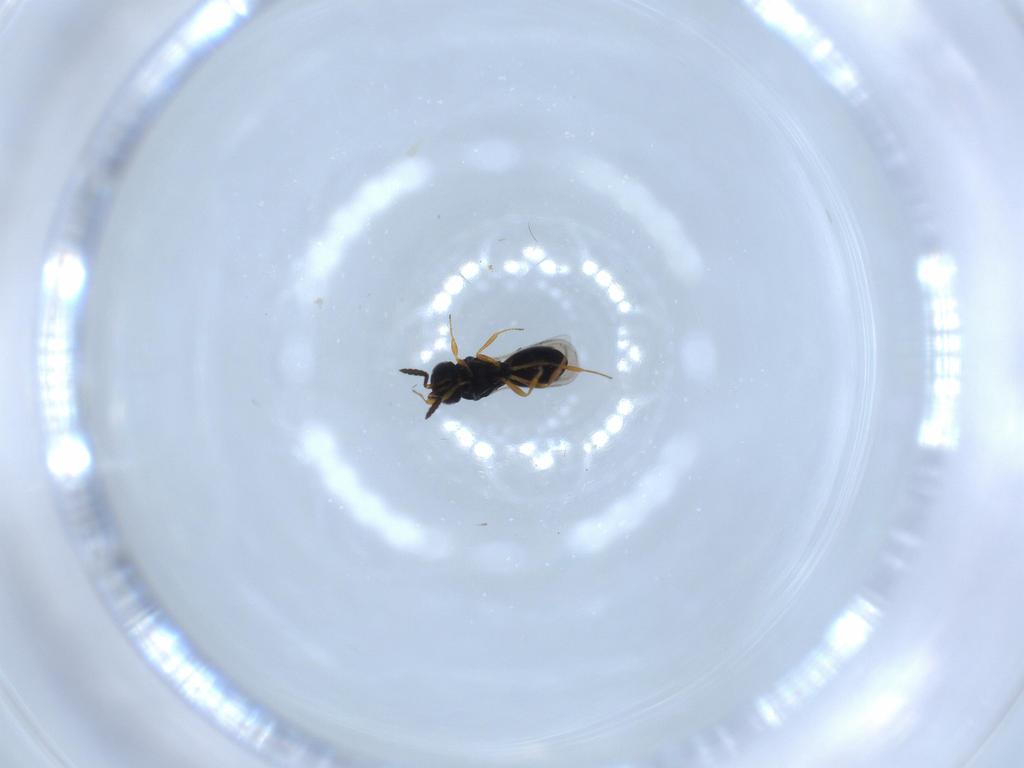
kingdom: Animalia
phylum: Arthropoda
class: Insecta
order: Hymenoptera
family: Scelionidae
